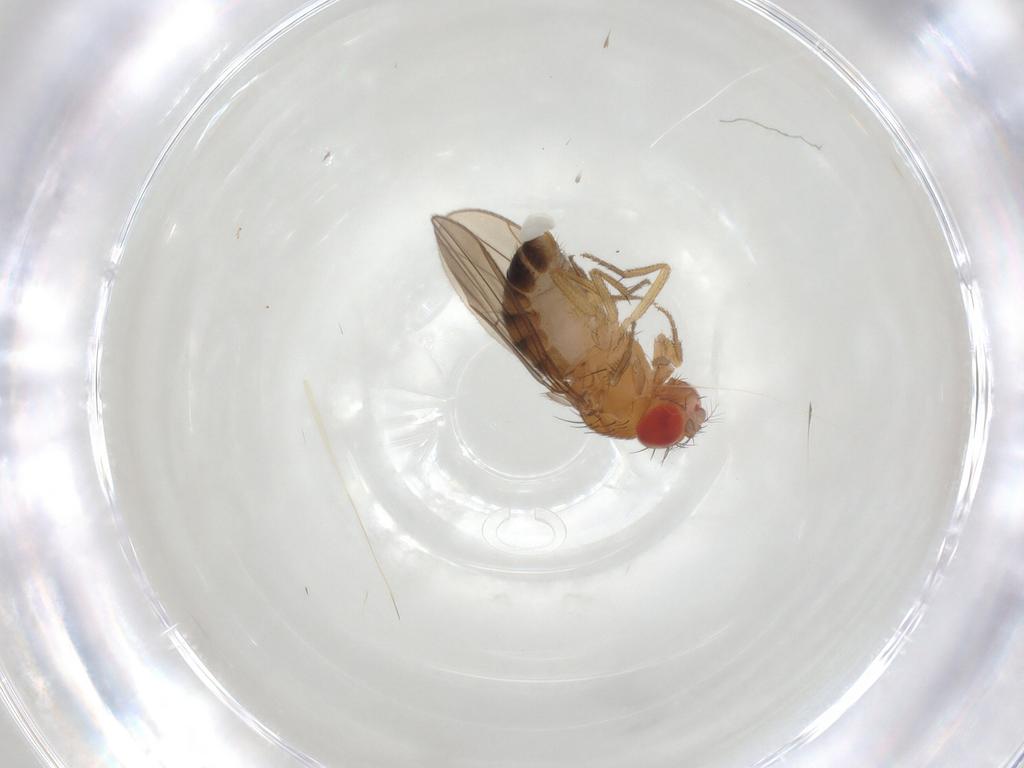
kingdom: Animalia
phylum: Arthropoda
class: Insecta
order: Diptera
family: Drosophilidae
